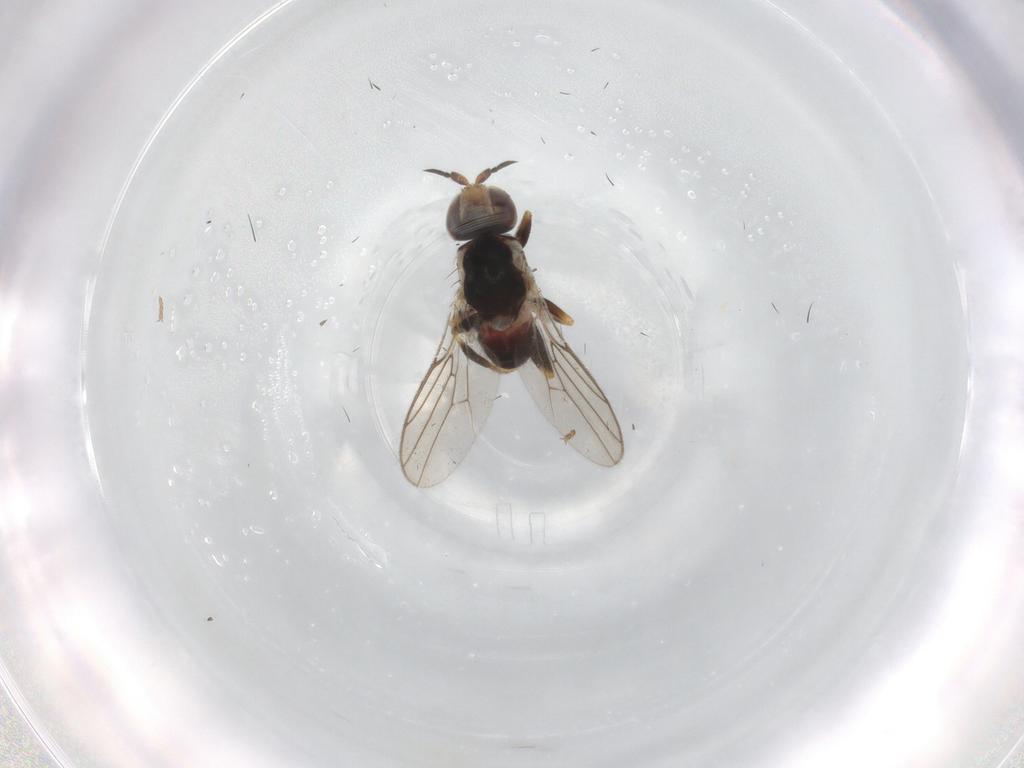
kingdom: Animalia
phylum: Arthropoda
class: Insecta
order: Diptera
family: Chloropidae
